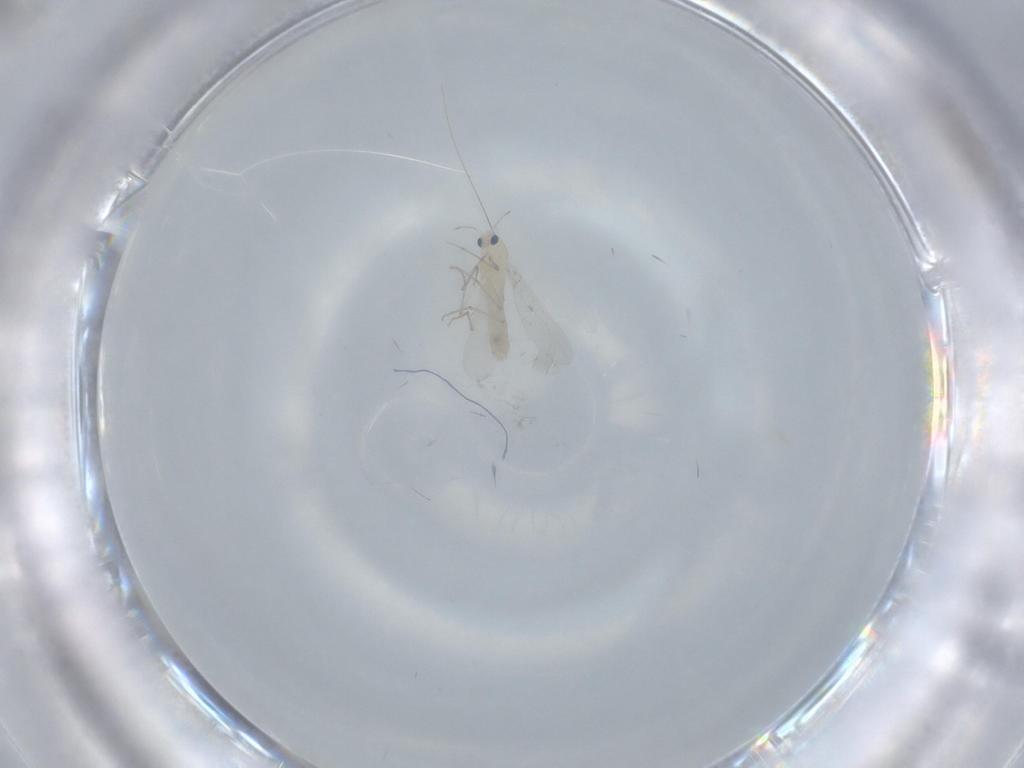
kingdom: Animalia
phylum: Arthropoda
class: Insecta
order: Diptera
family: Chironomidae
